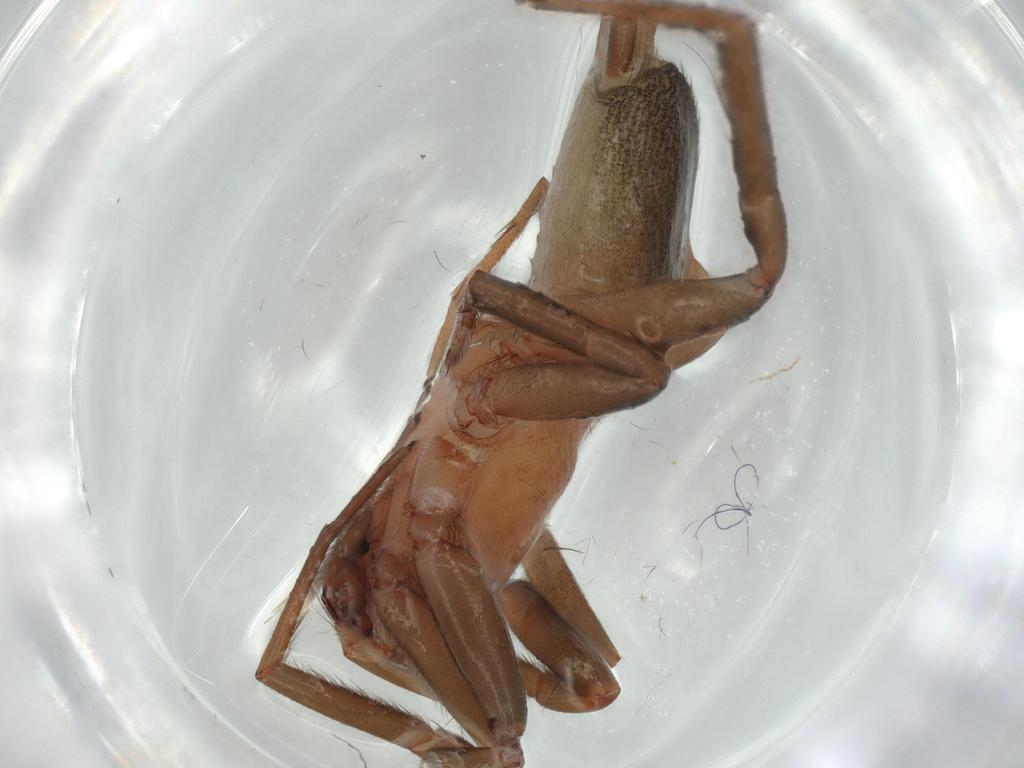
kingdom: Animalia
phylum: Arthropoda
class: Arachnida
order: Araneae
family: Gnaphosidae
